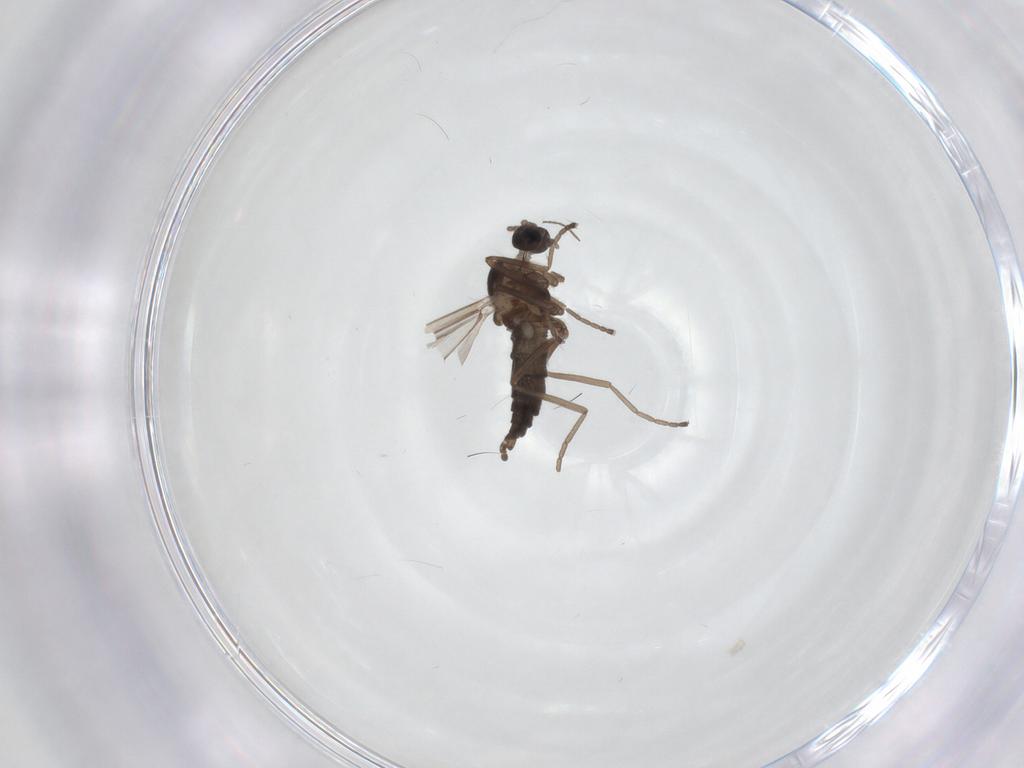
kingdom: Animalia
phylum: Arthropoda
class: Insecta
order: Diptera
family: Cecidomyiidae
